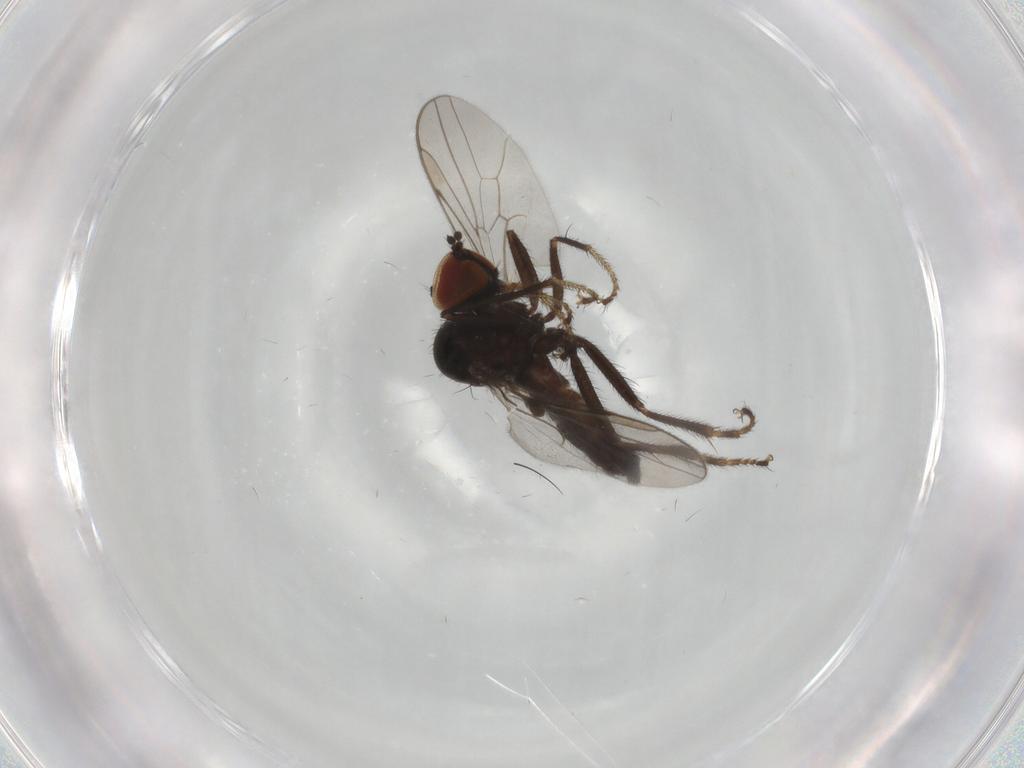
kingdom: Animalia
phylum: Arthropoda
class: Insecta
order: Diptera
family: Hybotidae
